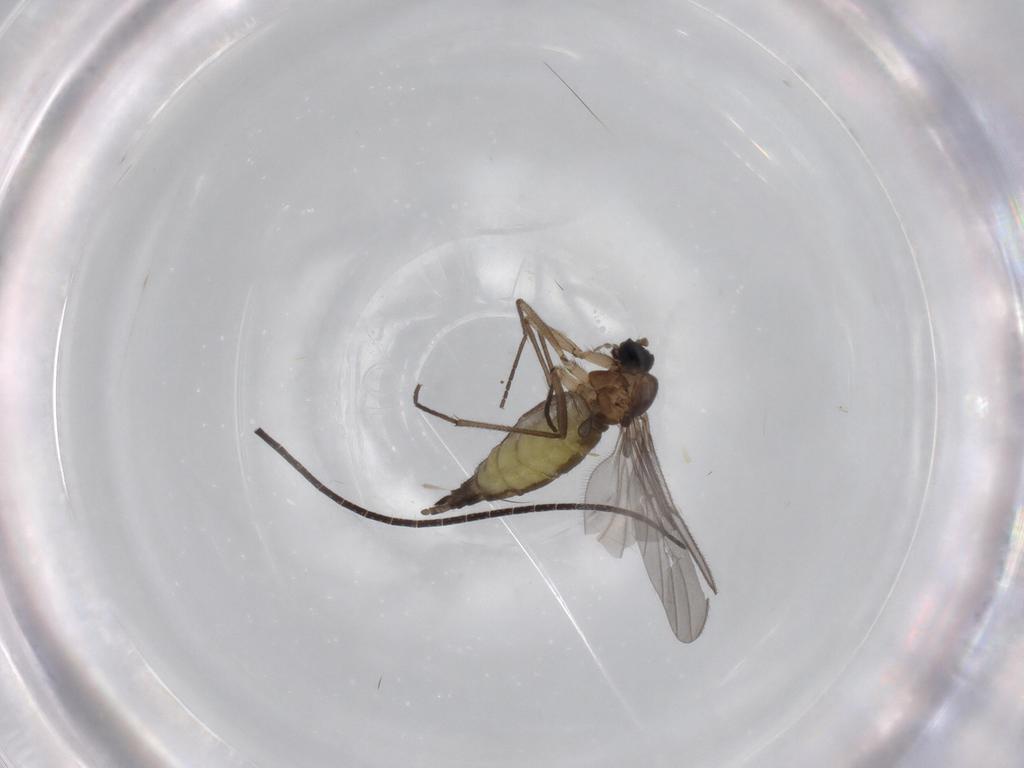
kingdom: Animalia
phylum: Arthropoda
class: Insecta
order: Diptera
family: Sciaridae
